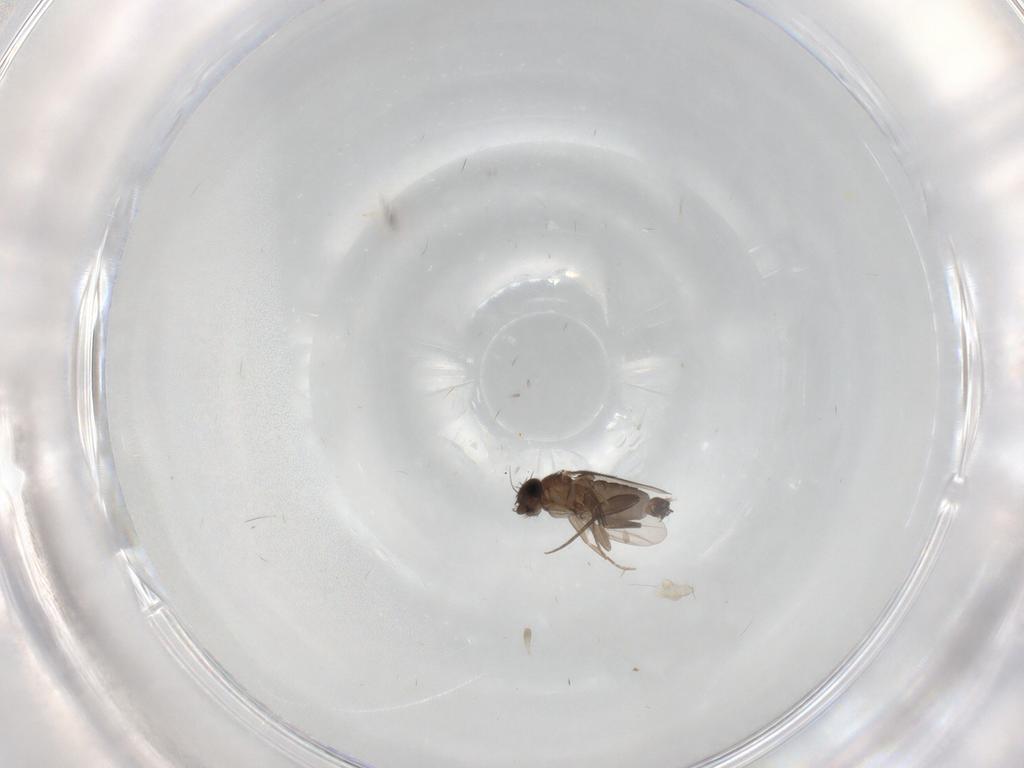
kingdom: Animalia
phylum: Arthropoda
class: Insecta
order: Diptera
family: Phoridae
